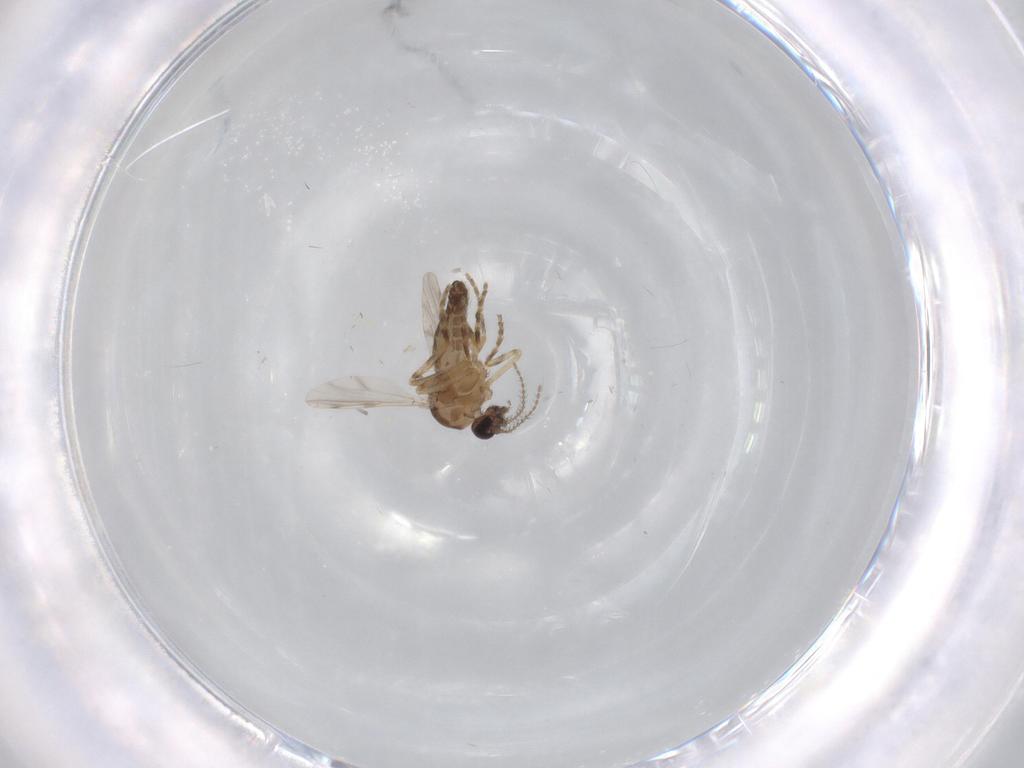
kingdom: Animalia
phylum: Arthropoda
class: Insecta
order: Diptera
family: Ceratopogonidae
